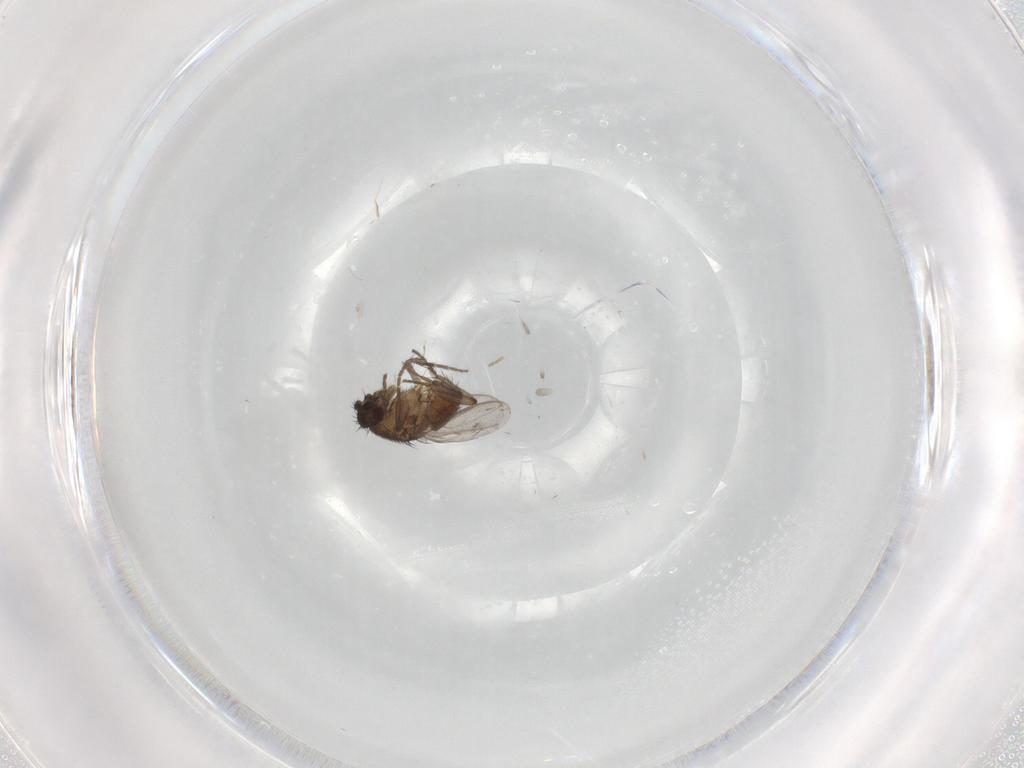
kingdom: Animalia
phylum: Arthropoda
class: Insecta
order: Diptera
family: Sphaeroceridae
